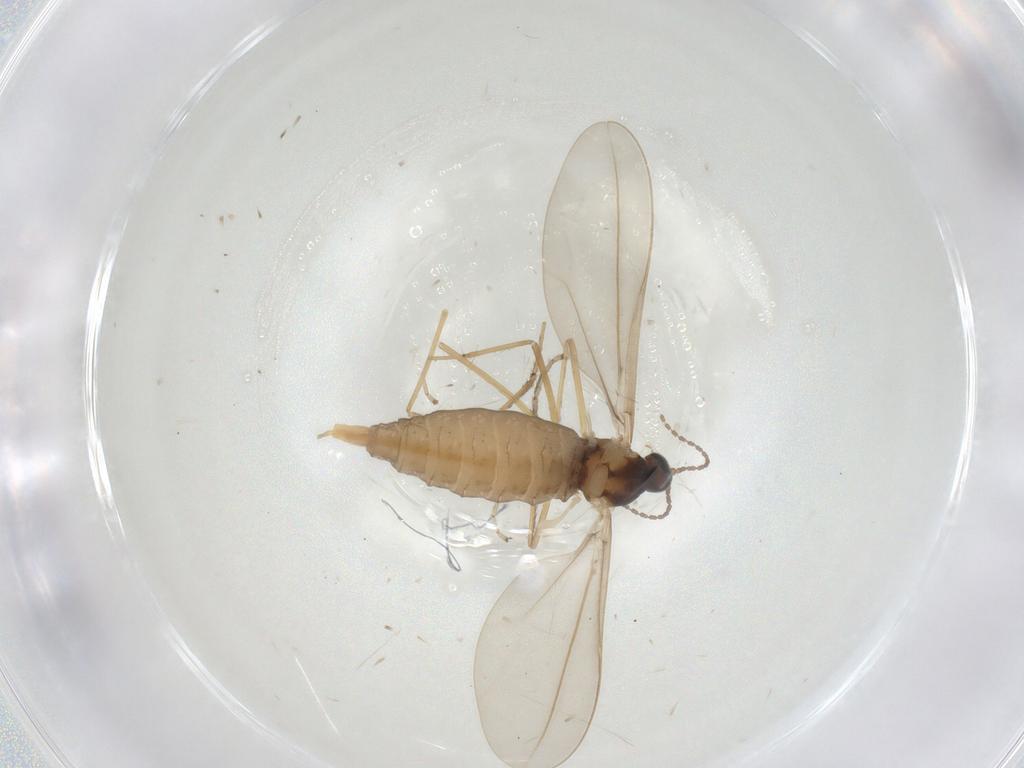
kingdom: Animalia
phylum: Arthropoda
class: Insecta
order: Diptera
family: Cecidomyiidae
